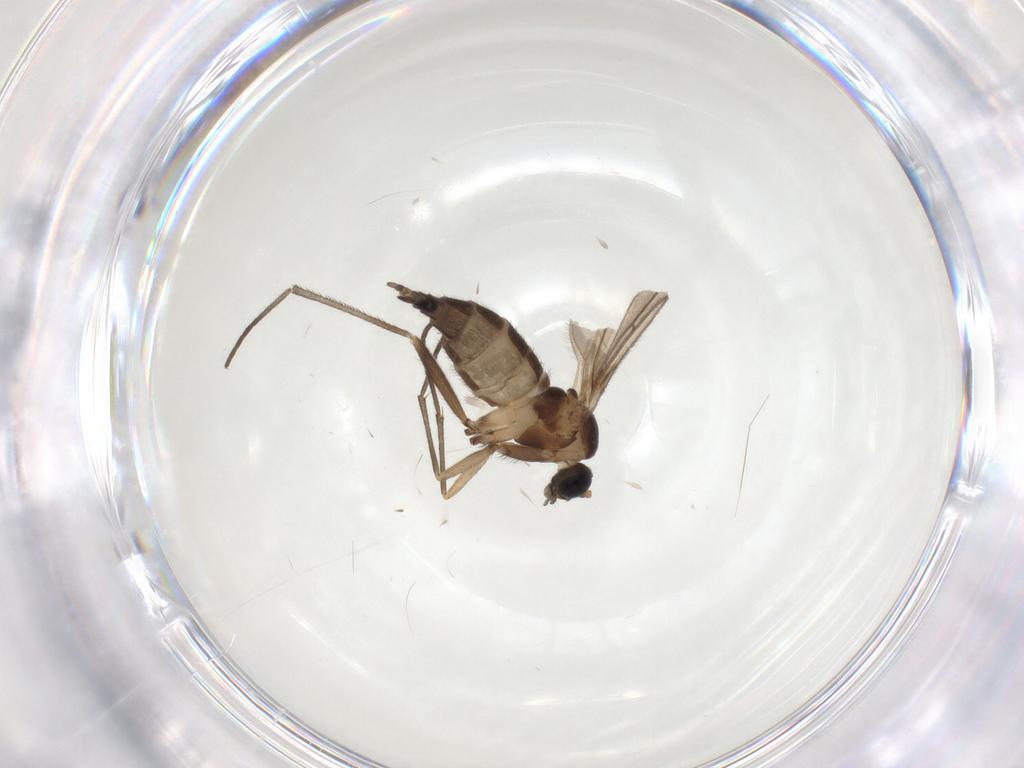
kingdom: Animalia
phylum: Arthropoda
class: Insecta
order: Diptera
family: Sciaridae
